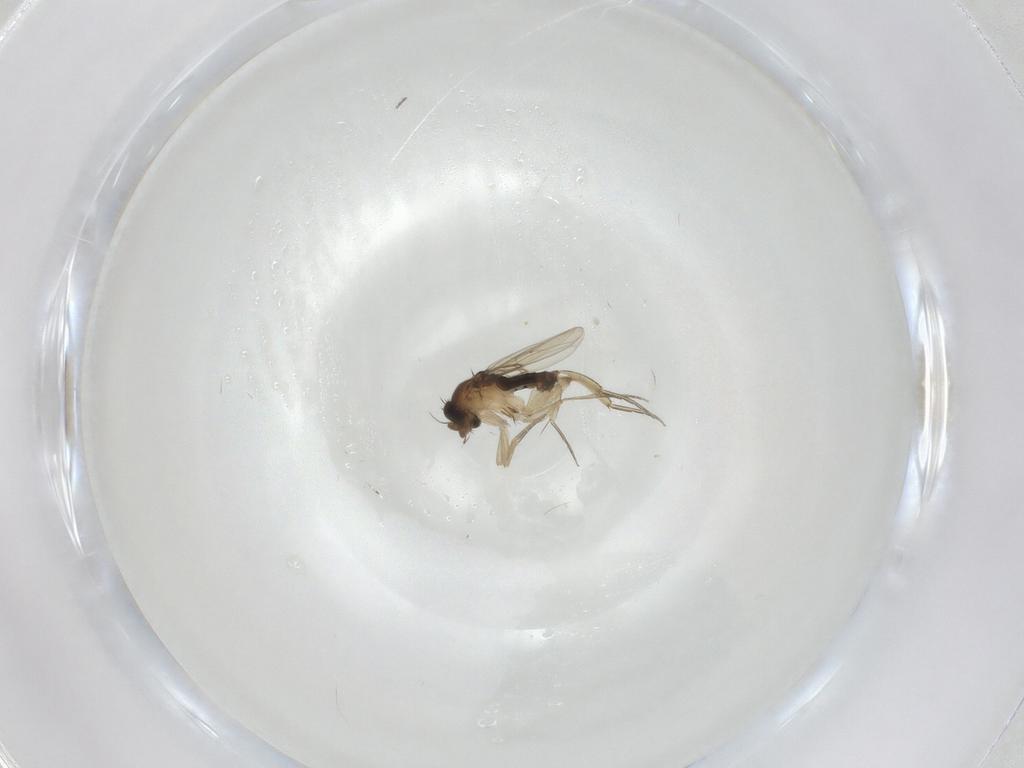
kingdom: Animalia
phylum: Arthropoda
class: Insecta
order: Diptera
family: Phoridae
